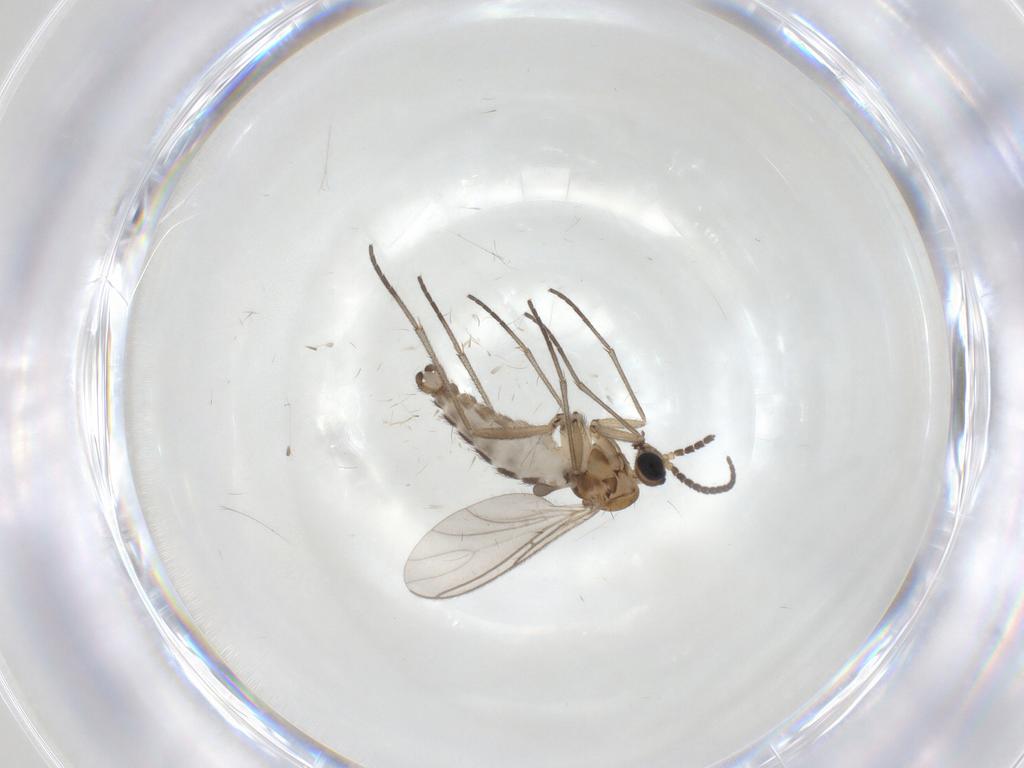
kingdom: Animalia
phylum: Arthropoda
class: Insecta
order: Diptera
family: Sciaridae
